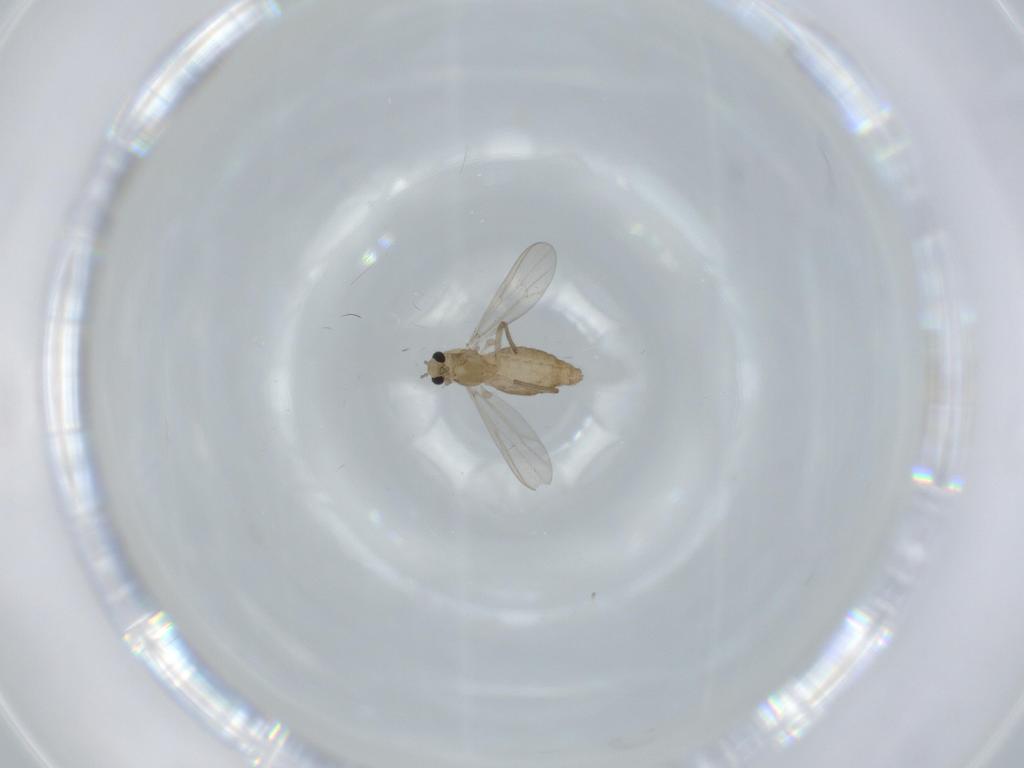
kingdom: Animalia
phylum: Arthropoda
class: Insecta
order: Diptera
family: Chironomidae
